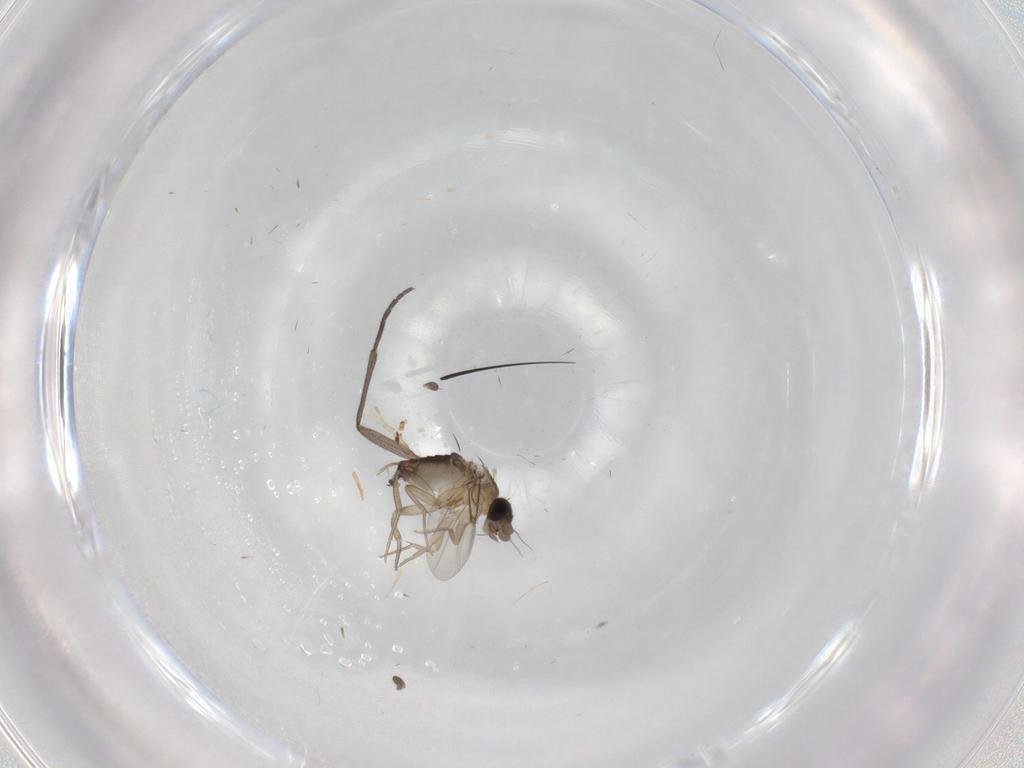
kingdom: Animalia
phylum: Arthropoda
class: Insecta
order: Diptera
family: Phoridae
